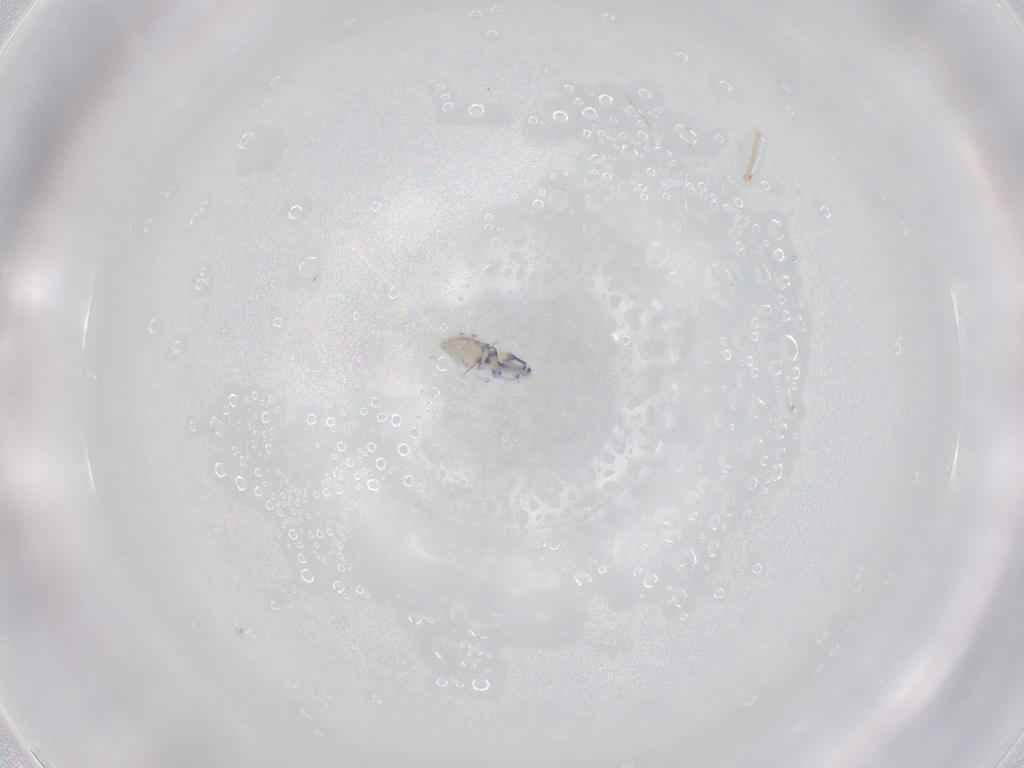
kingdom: Animalia
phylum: Arthropoda
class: Collembola
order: Entomobryomorpha
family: Entomobryidae
